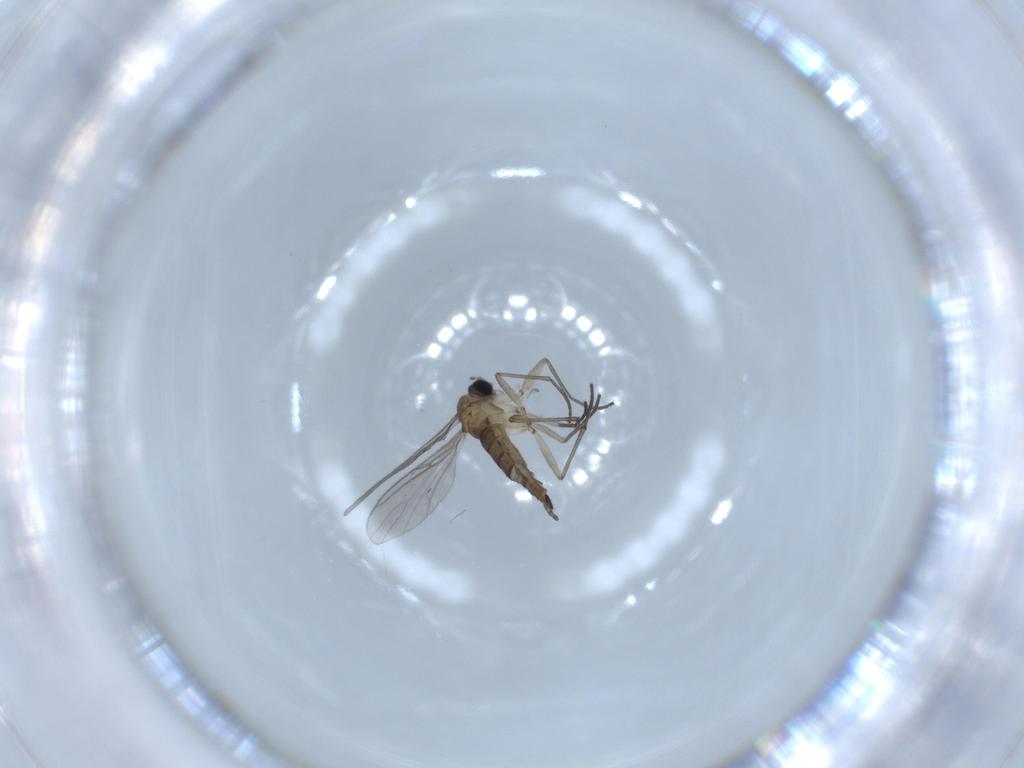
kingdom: Animalia
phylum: Arthropoda
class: Insecta
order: Diptera
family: Sciaridae
